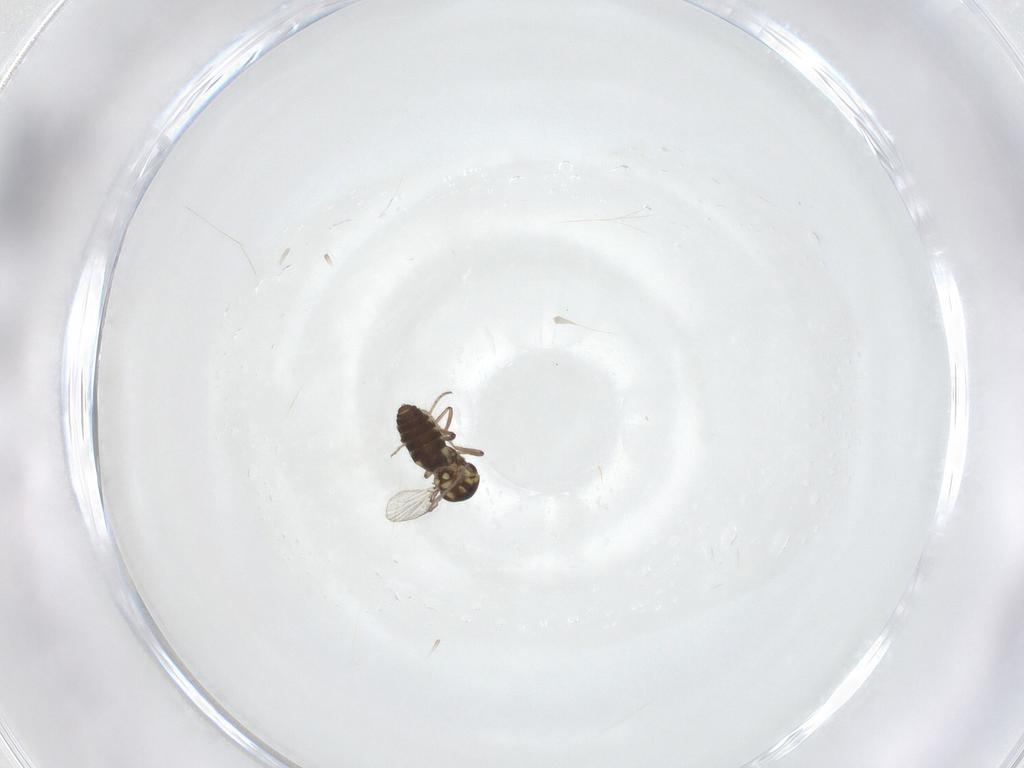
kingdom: Animalia
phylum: Arthropoda
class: Insecta
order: Diptera
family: Ceratopogonidae
